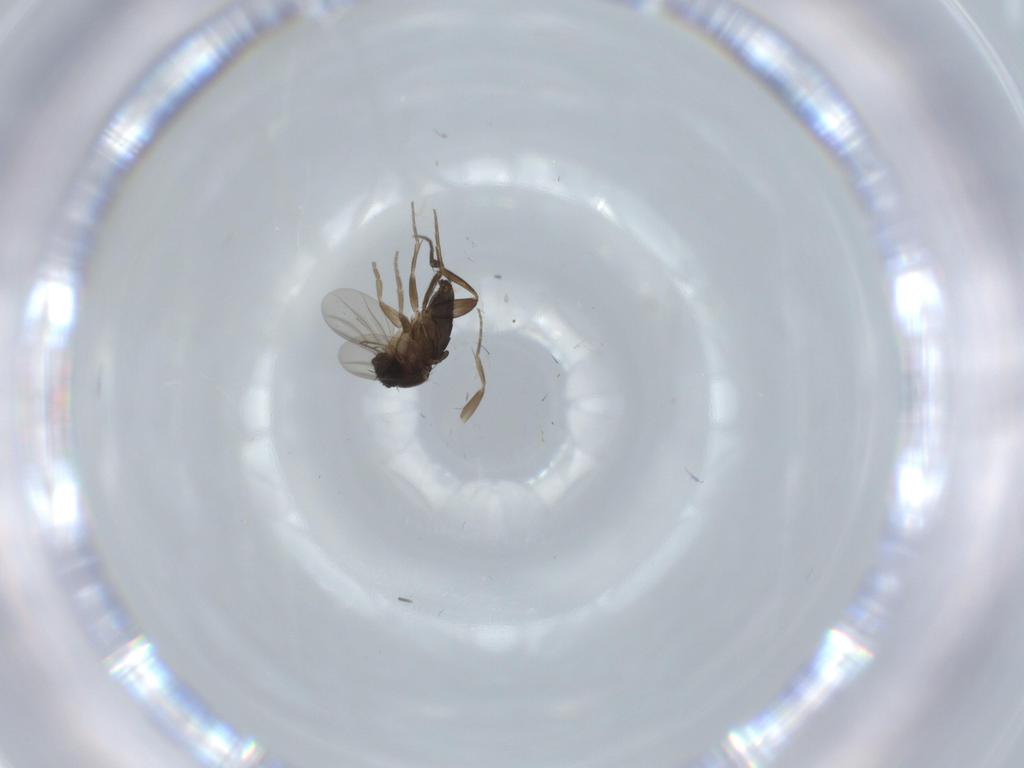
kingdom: Animalia
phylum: Arthropoda
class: Insecta
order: Diptera
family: Phoridae
